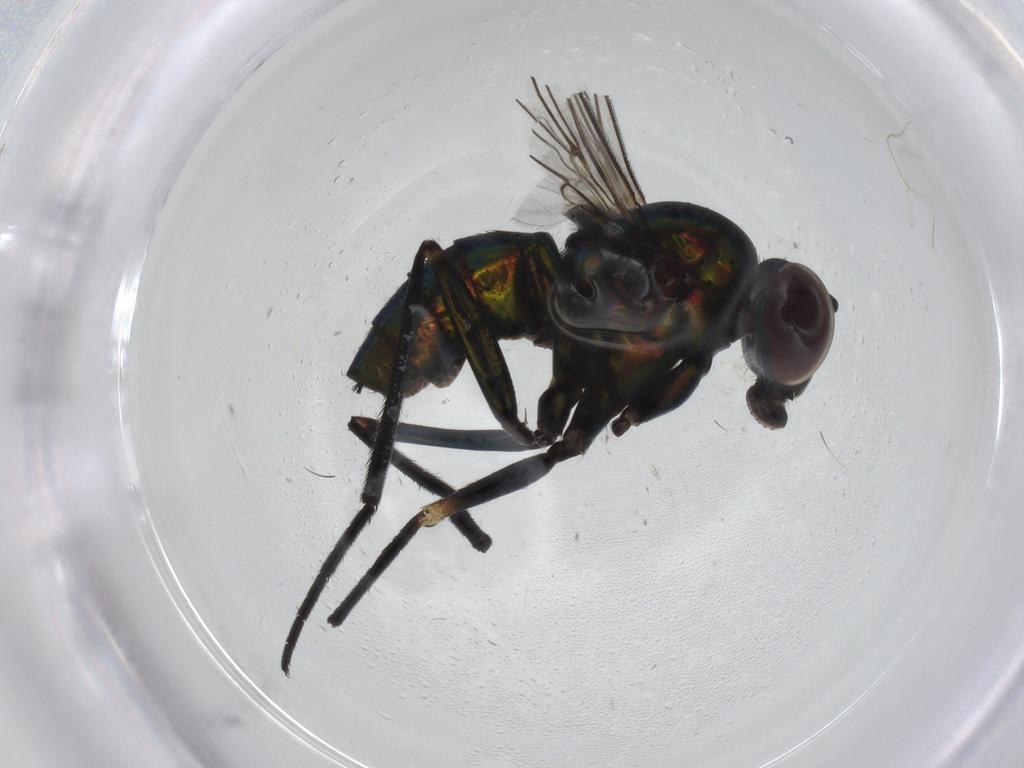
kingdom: Animalia
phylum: Arthropoda
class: Insecta
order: Diptera
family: Dolichopodidae
